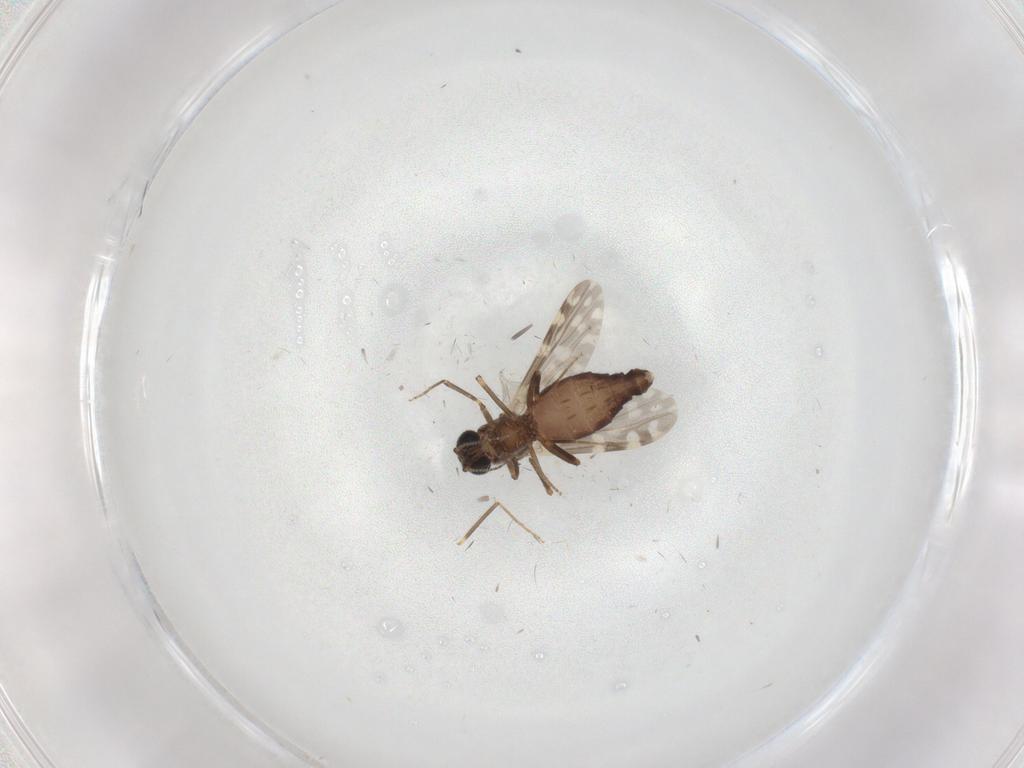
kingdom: Animalia
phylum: Arthropoda
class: Insecta
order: Diptera
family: Ceratopogonidae
